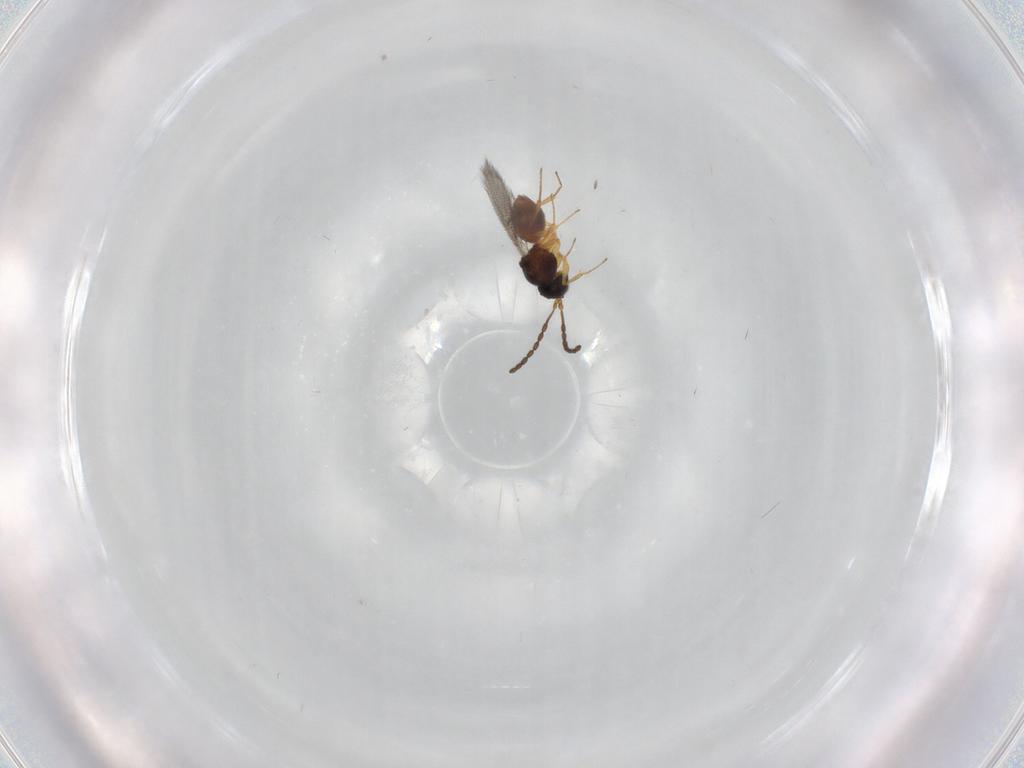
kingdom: Animalia
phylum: Arthropoda
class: Insecta
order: Hymenoptera
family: Figitidae
